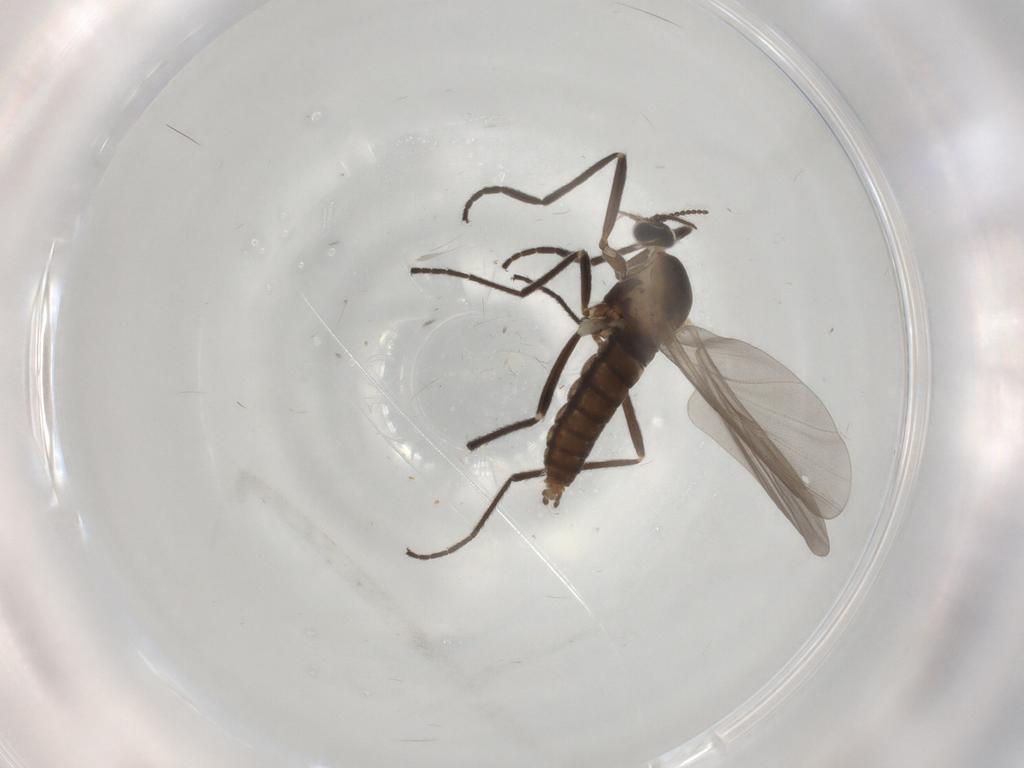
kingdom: Animalia
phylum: Arthropoda
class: Insecta
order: Diptera
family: Cecidomyiidae
